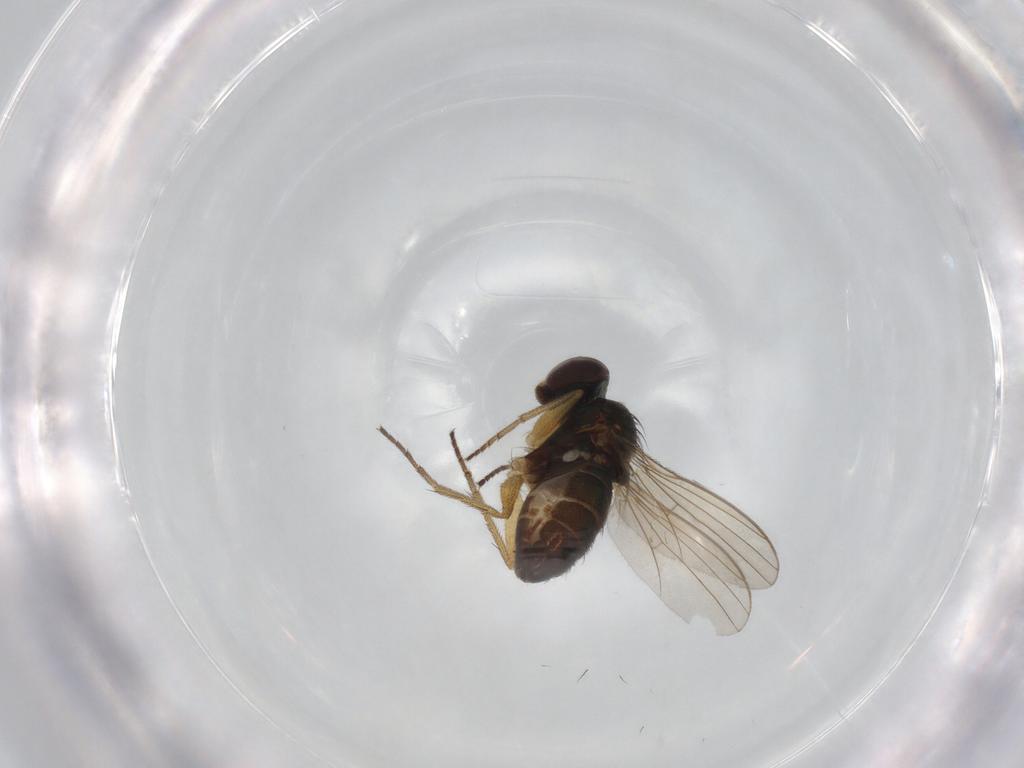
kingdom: Animalia
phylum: Arthropoda
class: Insecta
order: Diptera
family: Dolichopodidae
